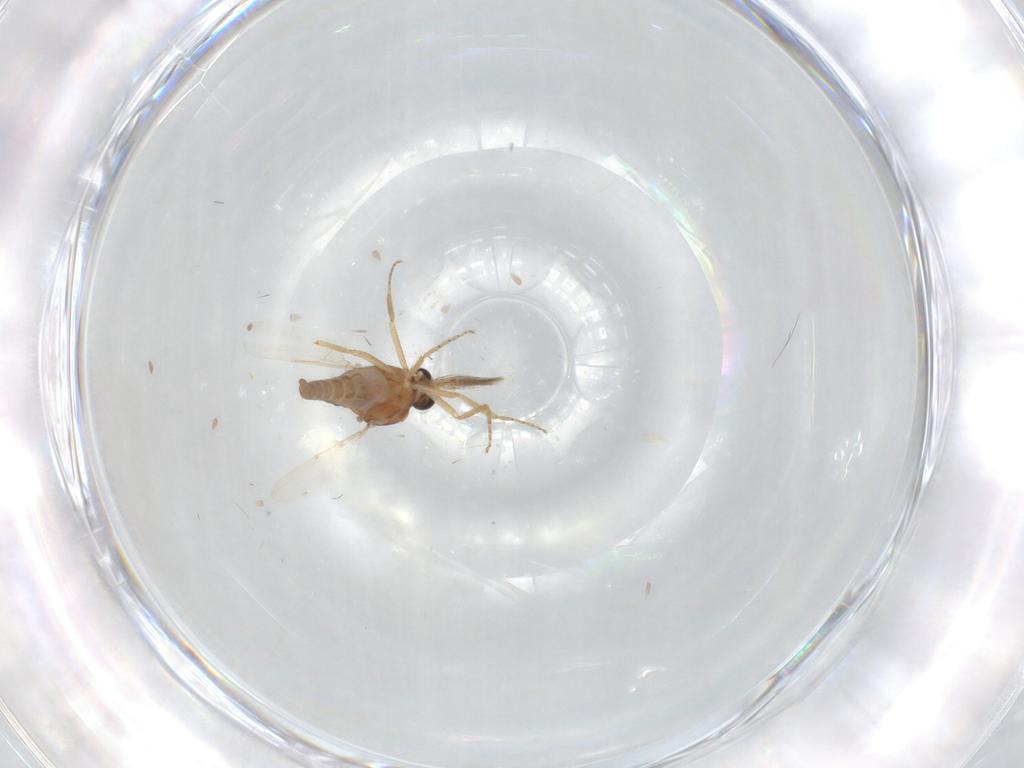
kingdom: Animalia
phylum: Arthropoda
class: Insecta
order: Diptera
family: Ceratopogonidae
